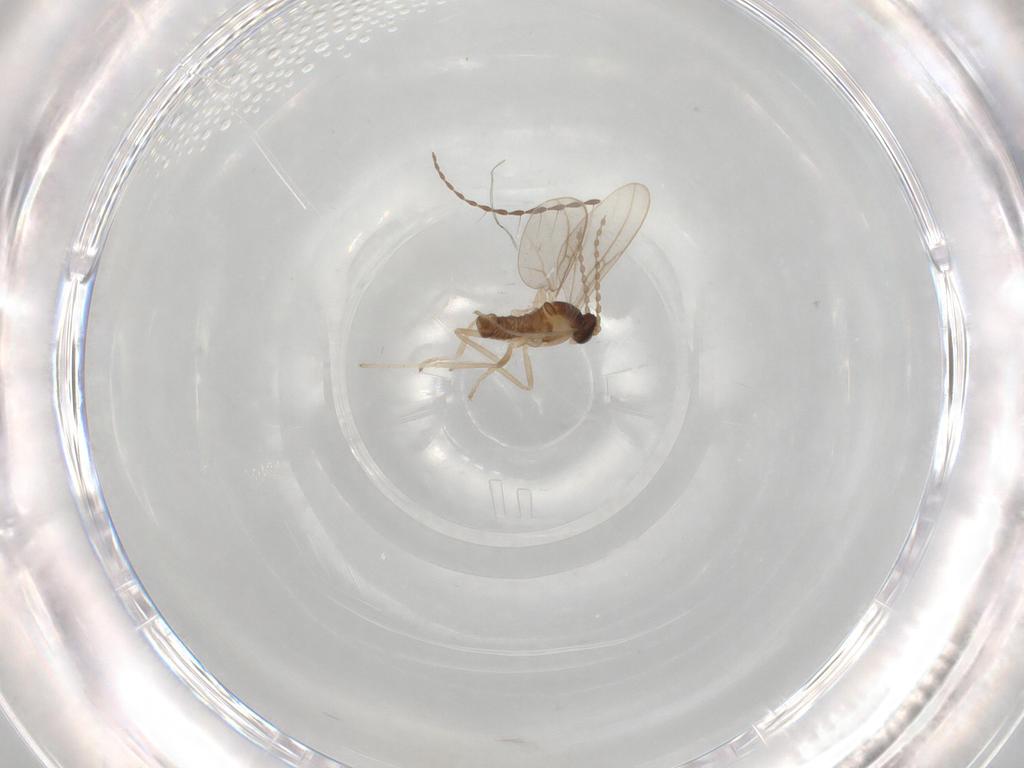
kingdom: Animalia
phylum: Arthropoda
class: Insecta
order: Diptera
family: Cecidomyiidae
